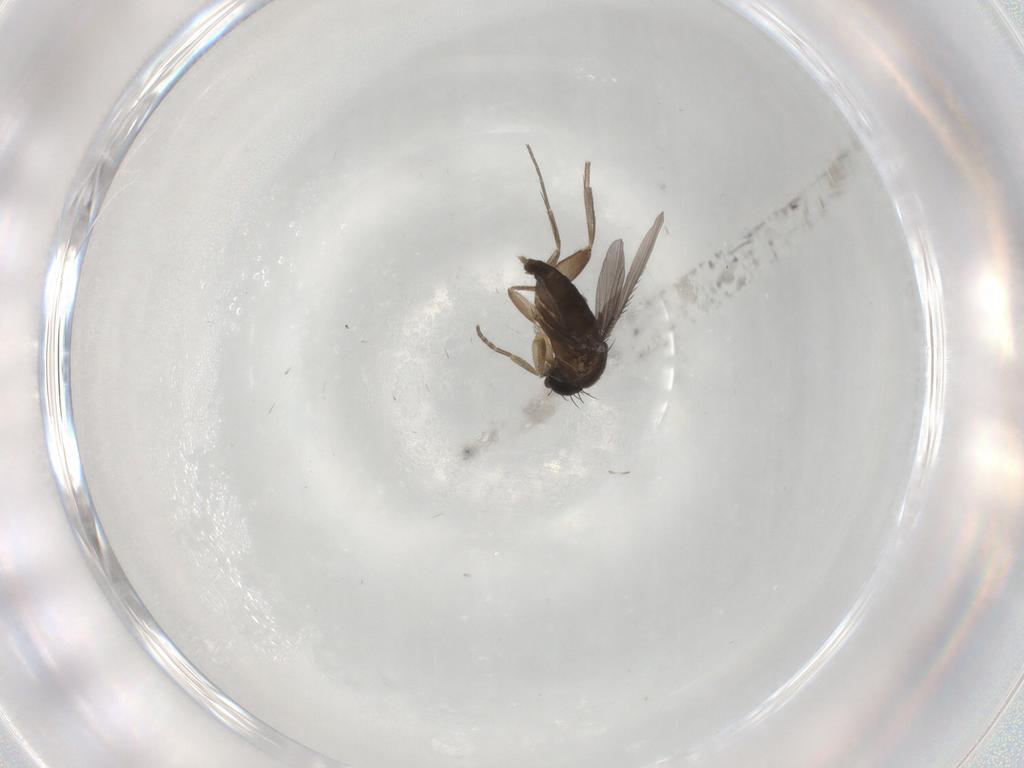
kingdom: Animalia
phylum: Arthropoda
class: Insecta
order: Diptera
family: Phoridae
